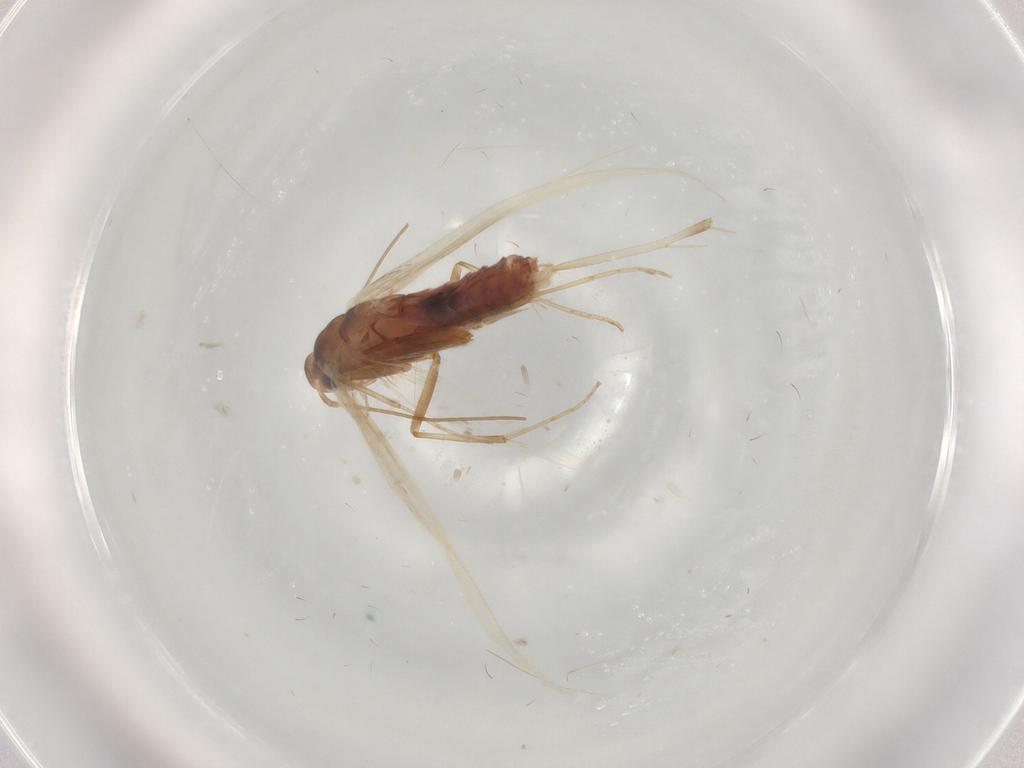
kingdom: Animalia
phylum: Arthropoda
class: Insecta
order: Lepidoptera
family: Coleophoridae
